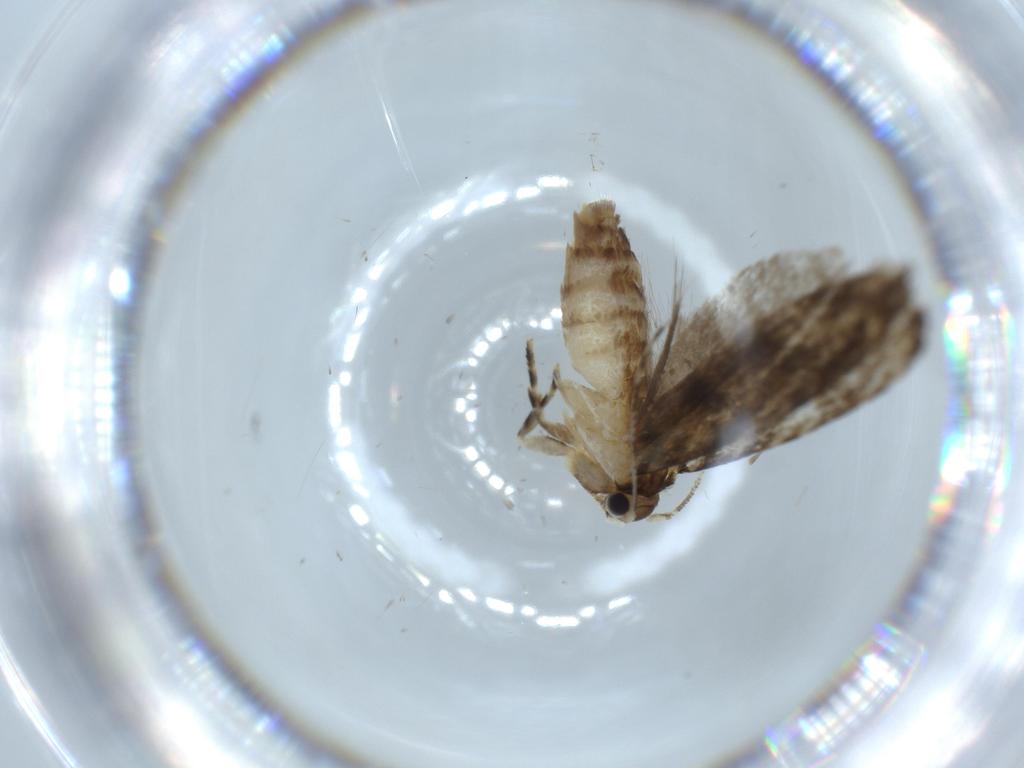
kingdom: Animalia
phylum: Arthropoda
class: Insecta
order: Lepidoptera
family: Tineidae
